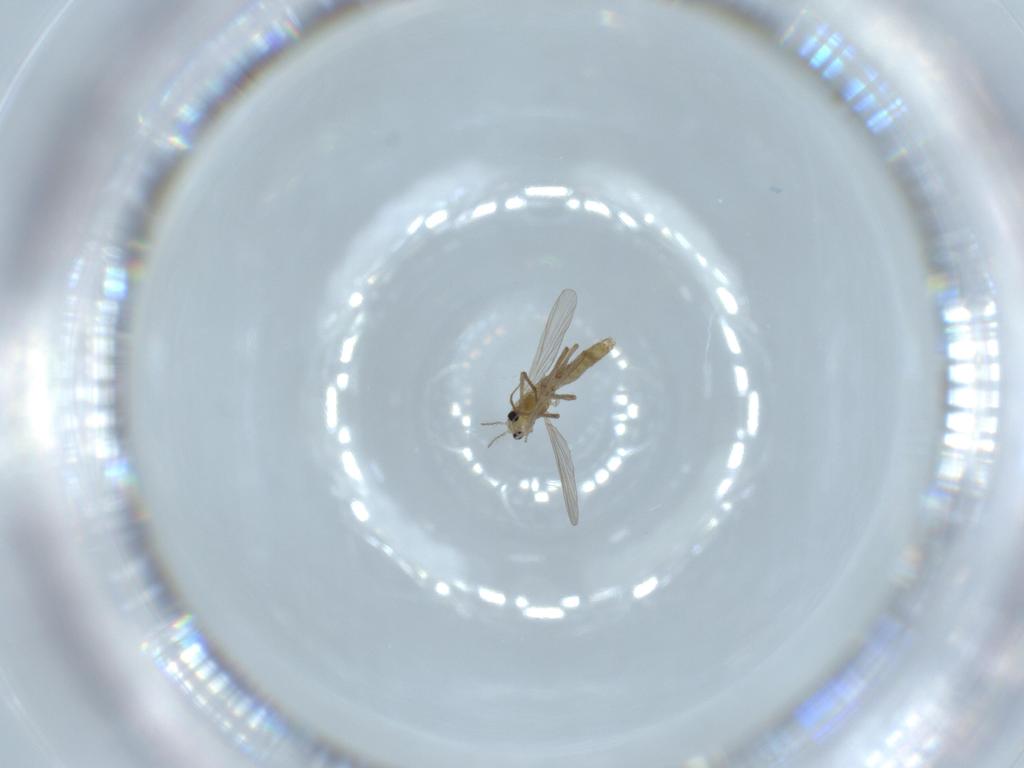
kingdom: Animalia
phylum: Arthropoda
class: Insecta
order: Diptera
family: Chironomidae
